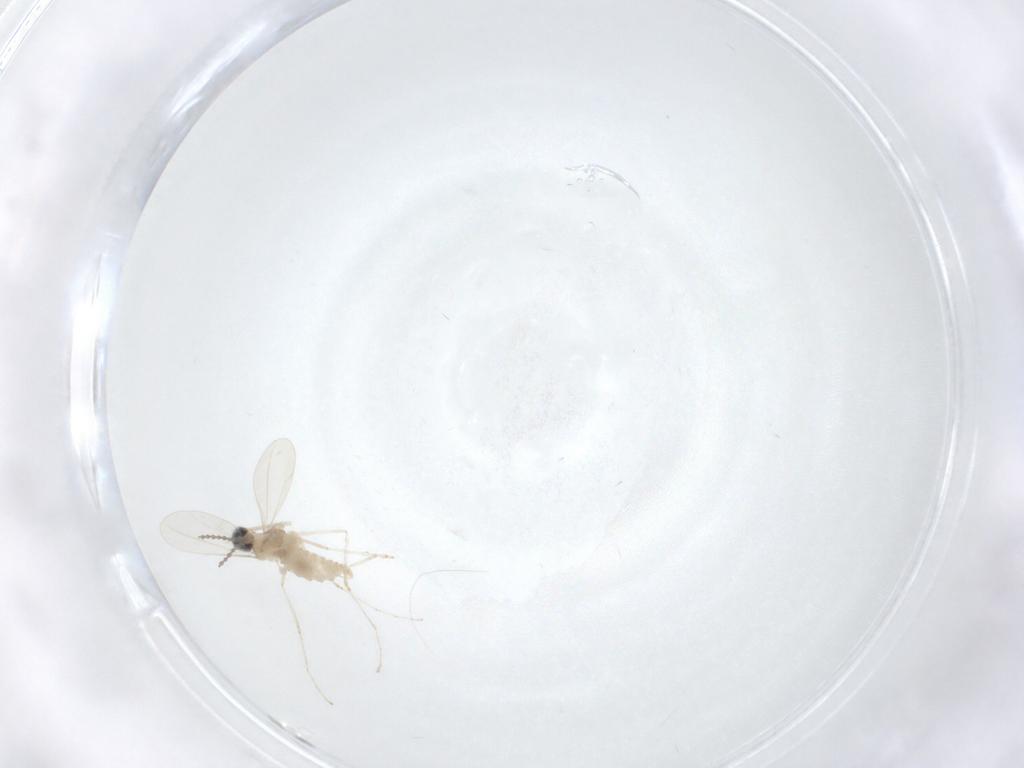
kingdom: Animalia
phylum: Arthropoda
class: Insecta
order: Diptera
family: Cecidomyiidae
